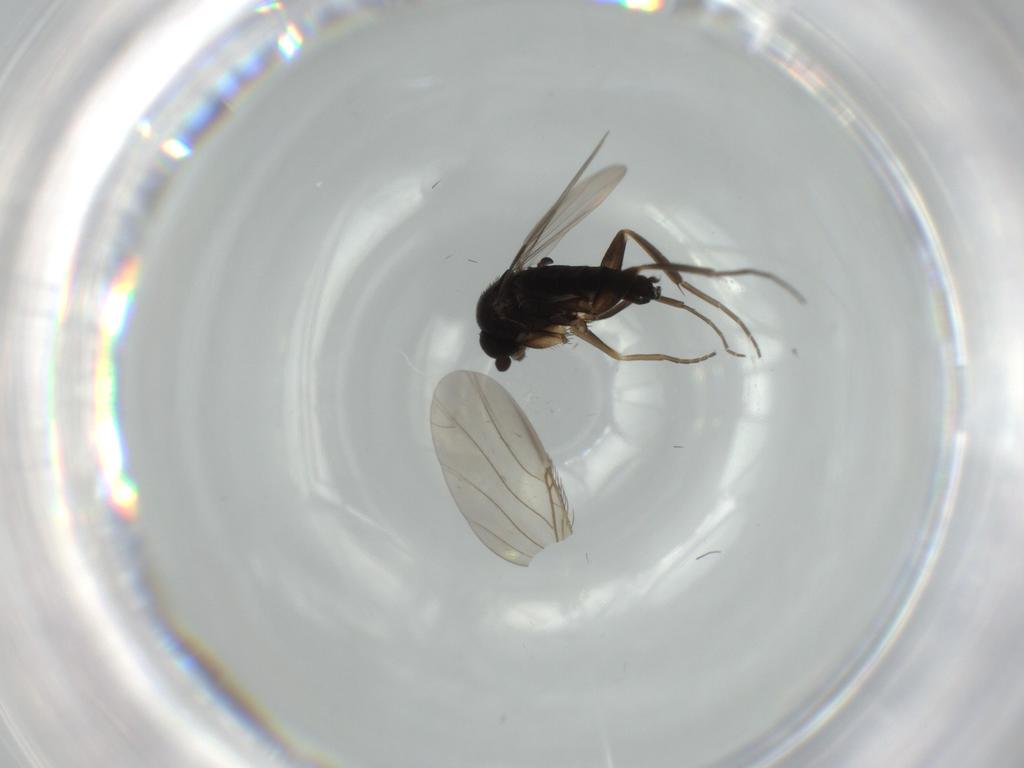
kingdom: Animalia
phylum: Arthropoda
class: Insecta
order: Diptera
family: Phoridae
